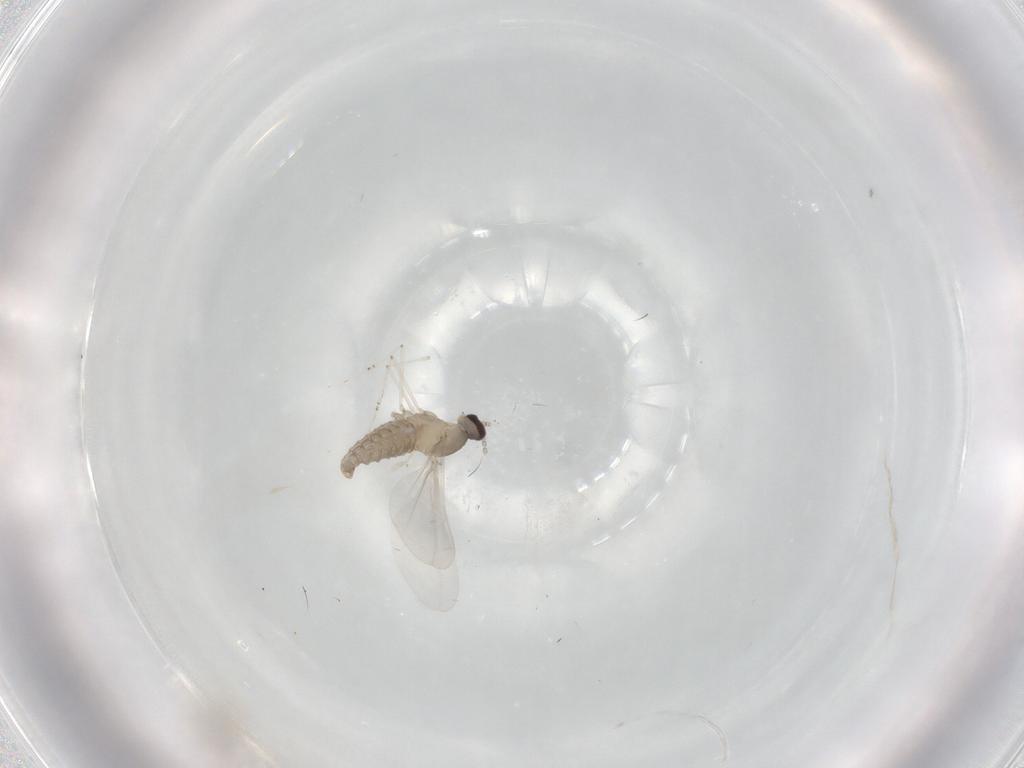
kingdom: Animalia
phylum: Arthropoda
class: Insecta
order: Diptera
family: Cecidomyiidae
